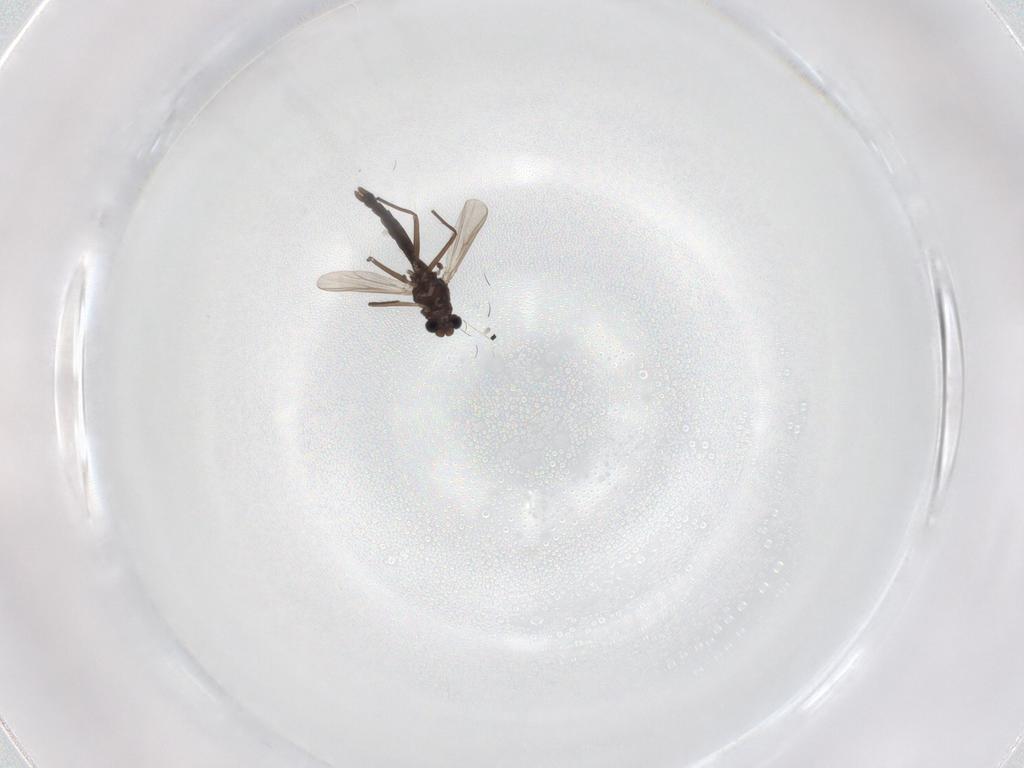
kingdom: Animalia
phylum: Arthropoda
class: Insecta
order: Diptera
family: Chironomidae
